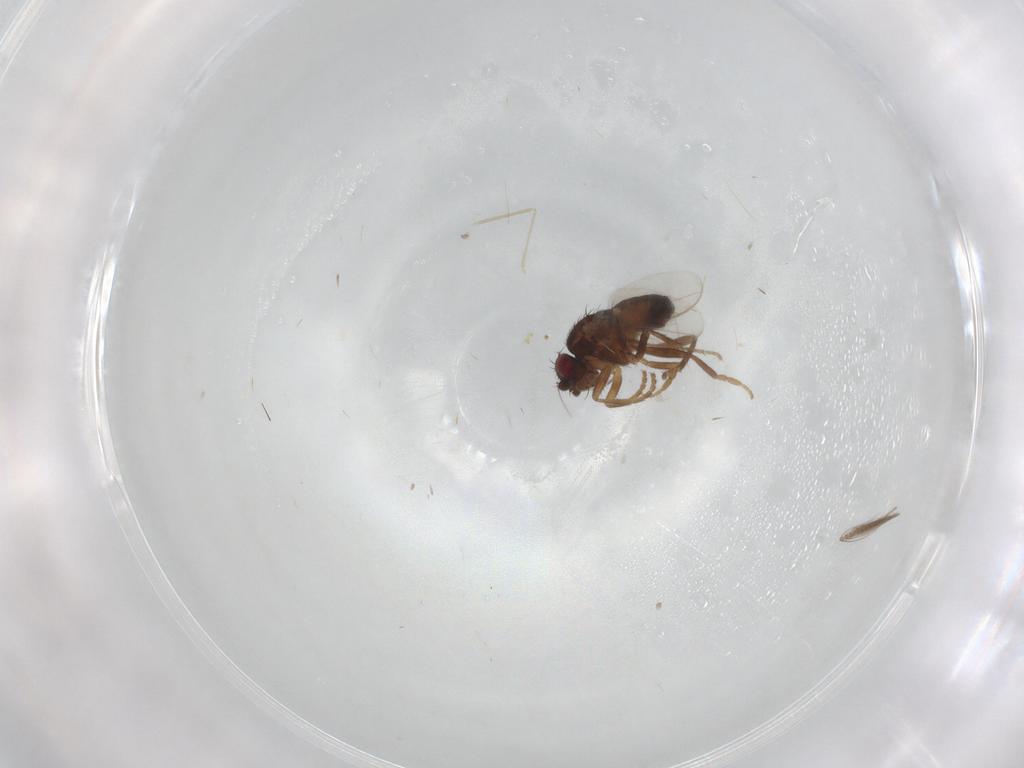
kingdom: Animalia
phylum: Arthropoda
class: Insecta
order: Diptera
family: Sphaeroceridae
